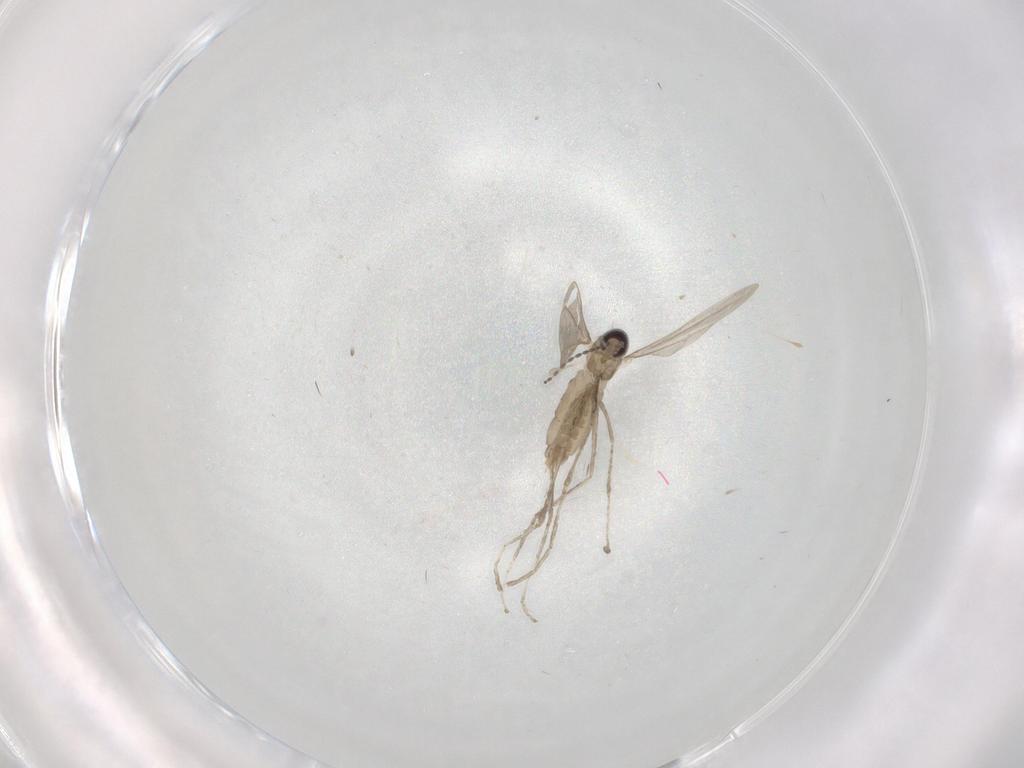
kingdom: Animalia
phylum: Arthropoda
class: Insecta
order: Diptera
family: Cecidomyiidae
